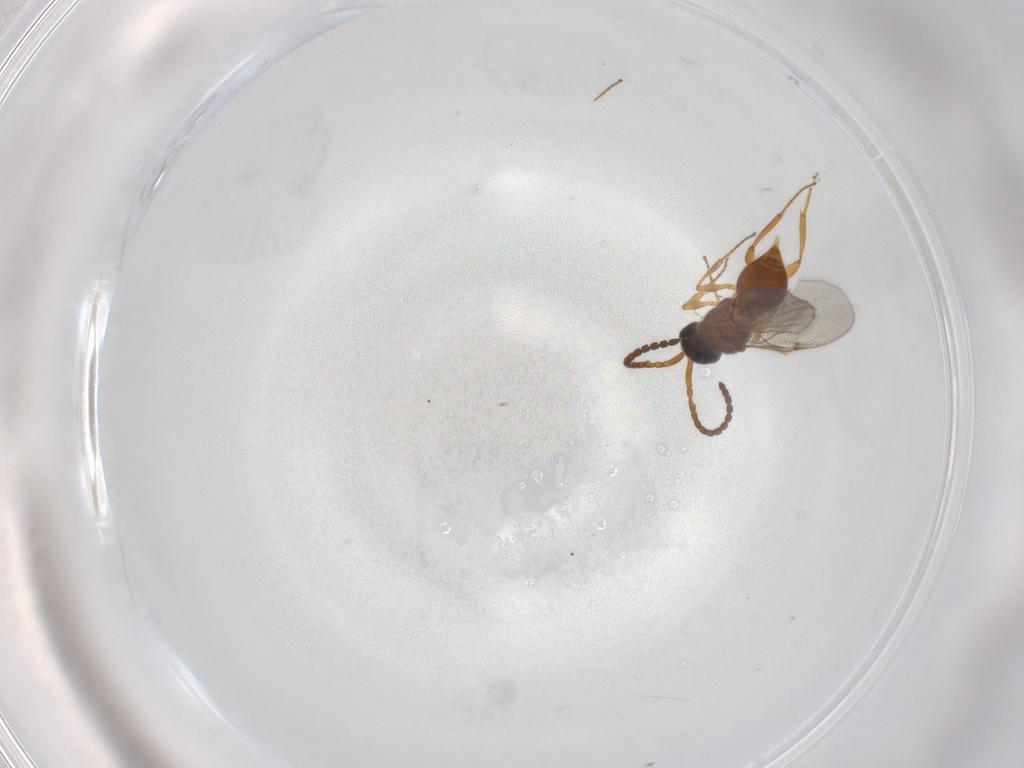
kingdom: Animalia
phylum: Arthropoda
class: Insecta
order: Hymenoptera
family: Diapriidae
